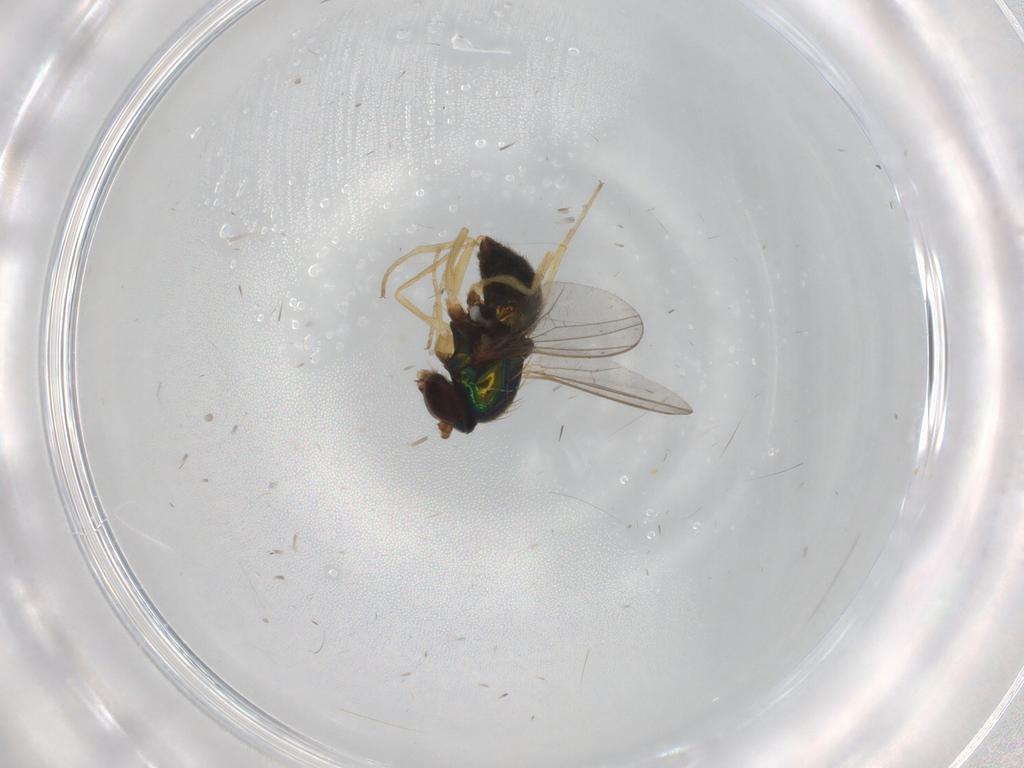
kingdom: Animalia
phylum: Arthropoda
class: Insecta
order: Diptera
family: Dolichopodidae
